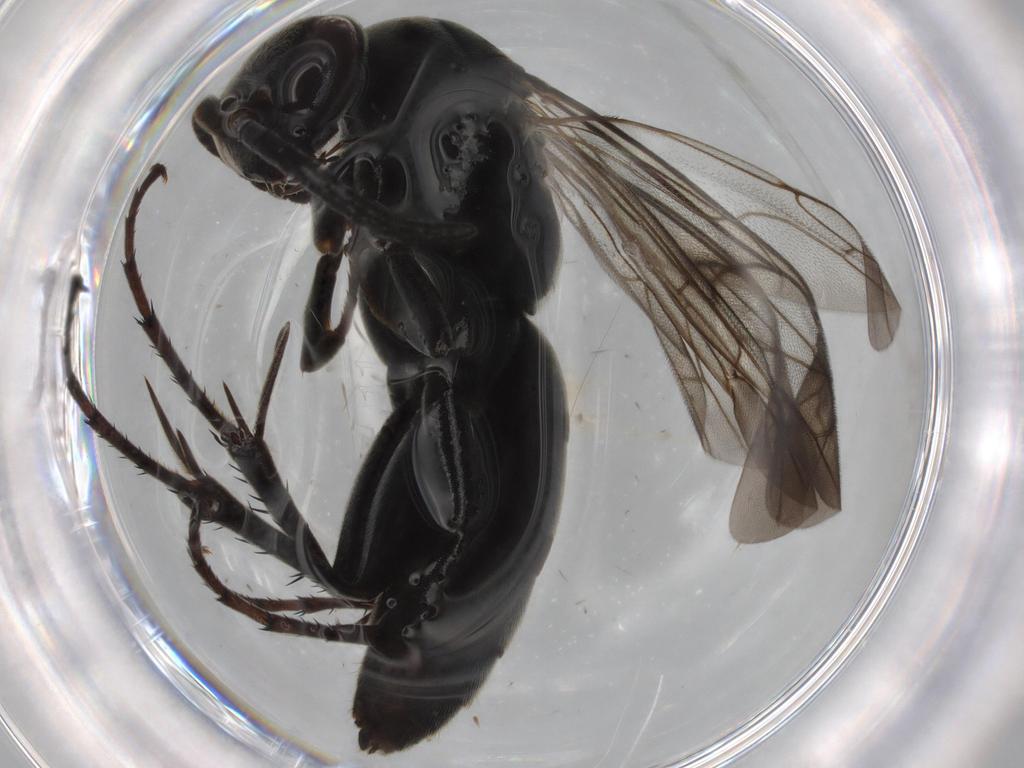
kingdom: Animalia
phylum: Arthropoda
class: Insecta
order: Hymenoptera
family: Pompilidae
